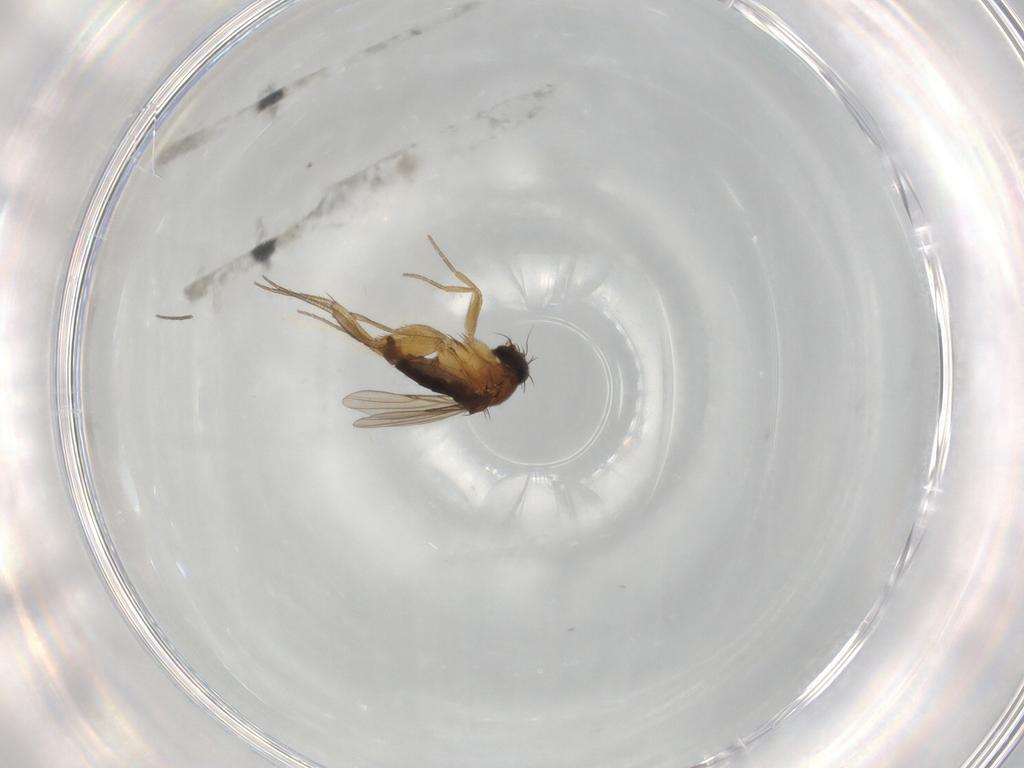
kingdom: Animalia
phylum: Arthropoda
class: Insecta
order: Diptera
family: Phoridae
